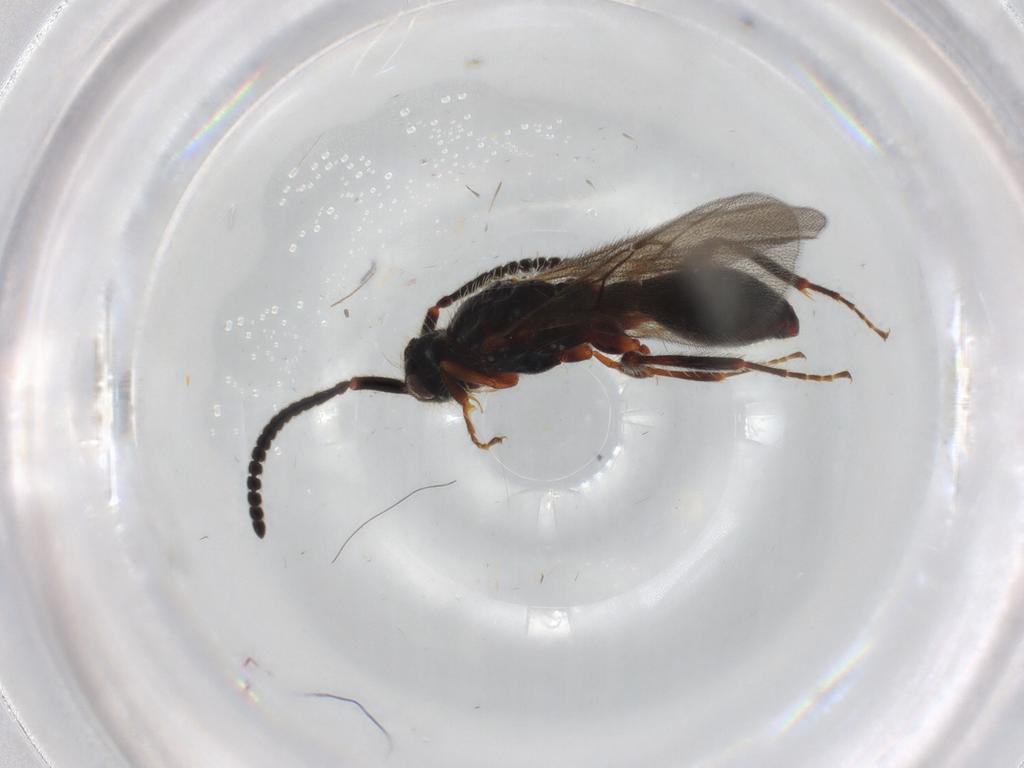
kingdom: Animalia
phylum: Arthropoda
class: Insecta
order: Hymenoptera
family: Diapriidae
